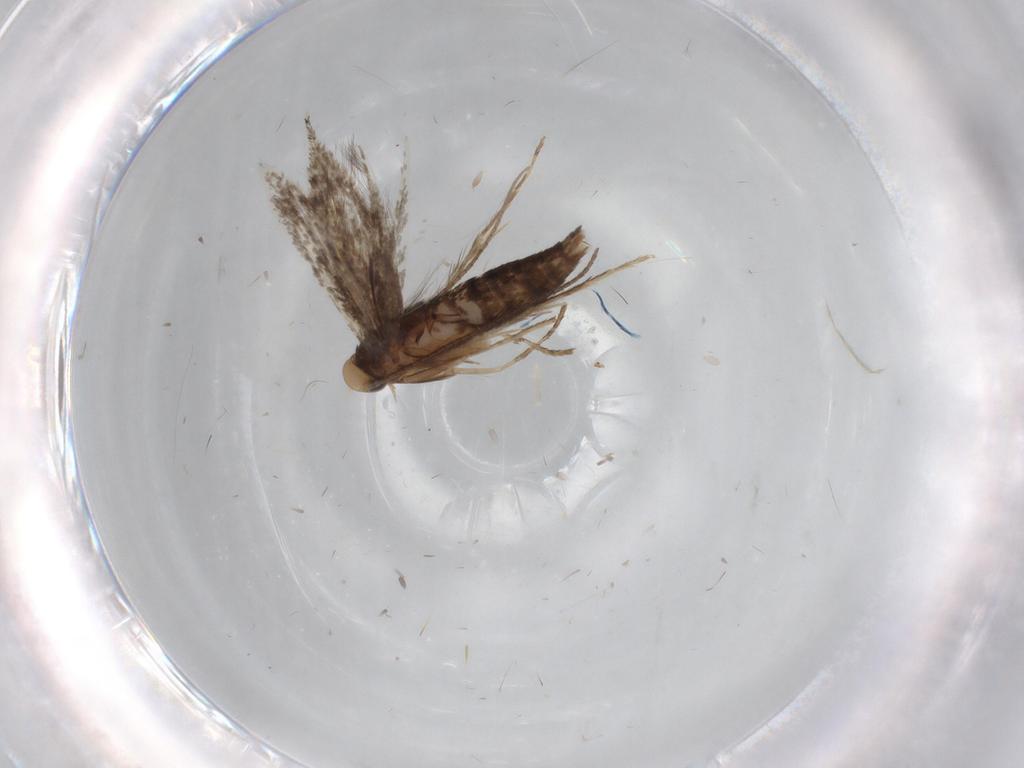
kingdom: Animalia
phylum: Arthropoda
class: Insecta
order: Lepidoptera
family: Nepticulidae
